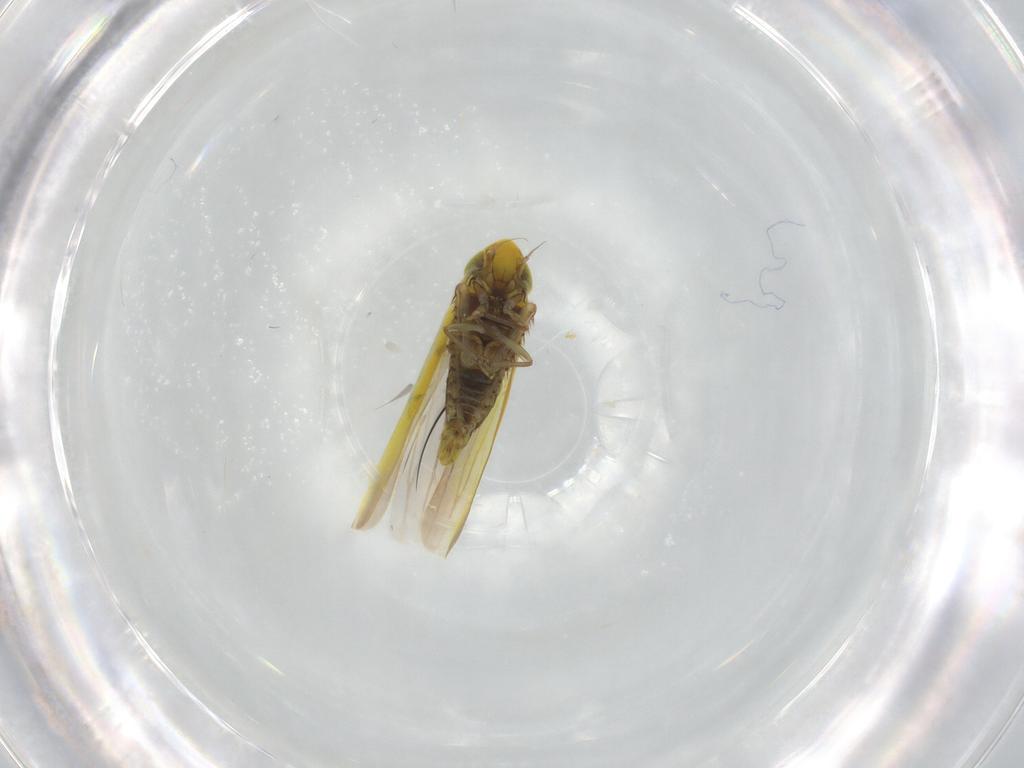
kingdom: Animalia
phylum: Arthropoda
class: Insecta
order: Hemiptera
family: Cicadellidae
